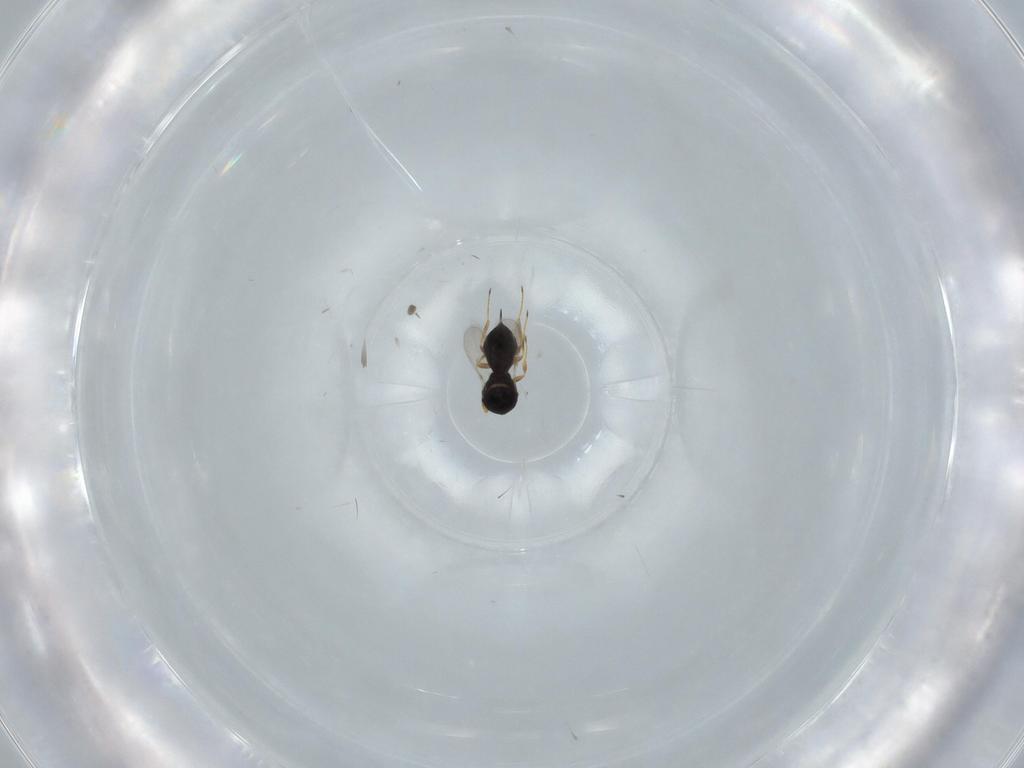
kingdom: Animalia
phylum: Arthropoda
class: Insecta
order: Hymenoptera
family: Scelionidae
